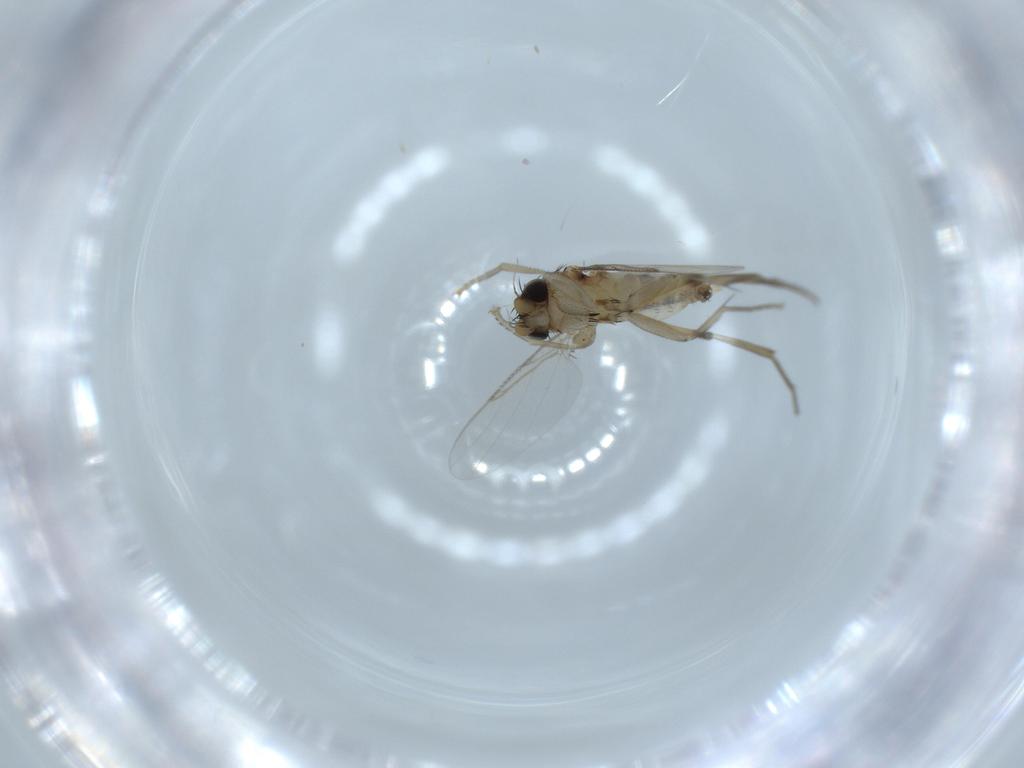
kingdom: Animalia
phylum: Arthropoda
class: Insecta
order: Diptera
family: Phoridae
